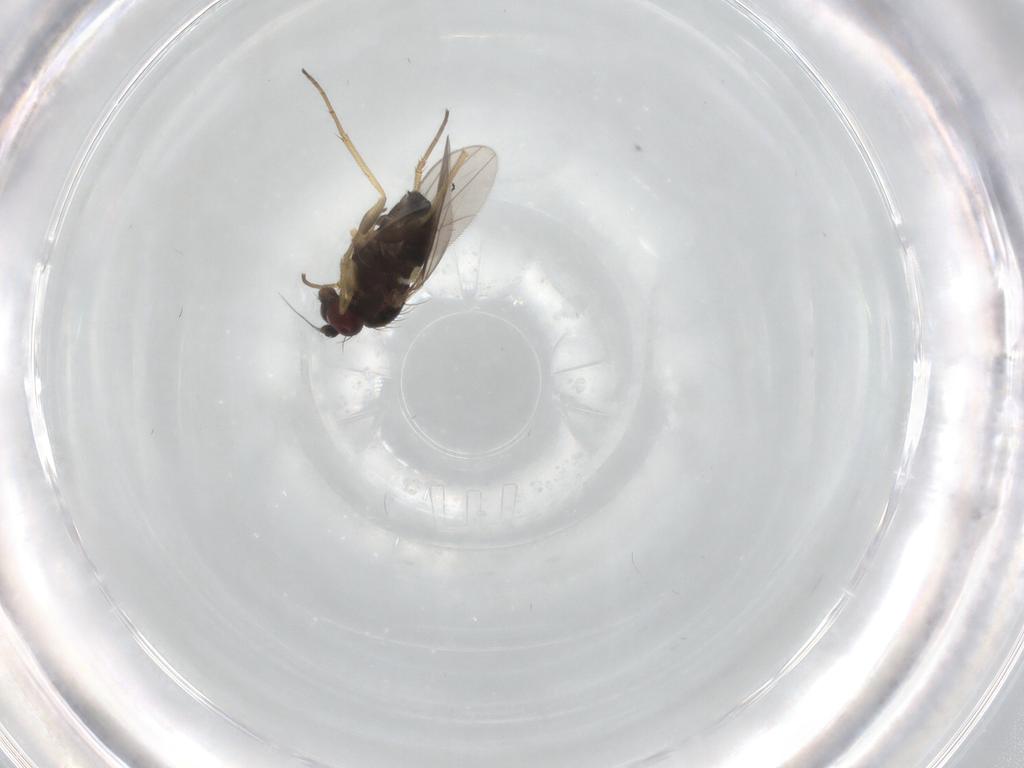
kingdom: Animalia
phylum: Arthropoda
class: Insecta
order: Diptera
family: Dolichopodidae
